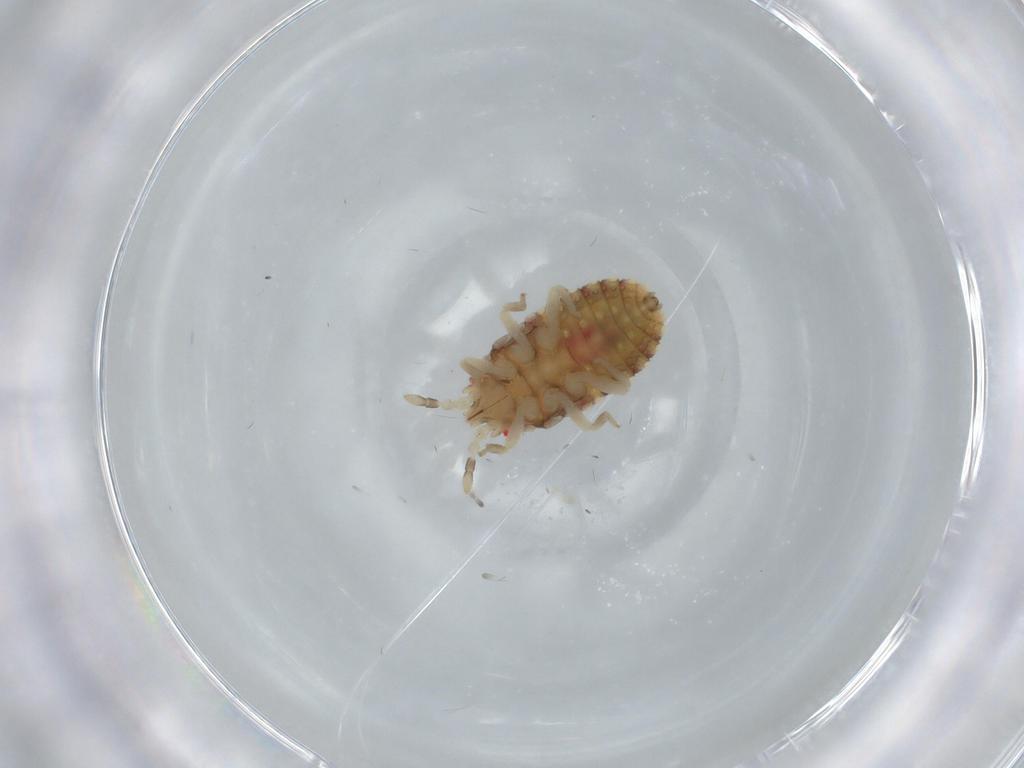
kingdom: Animalia
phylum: Arthropoda
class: Insecta
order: Hemiptera
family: Aradidae
